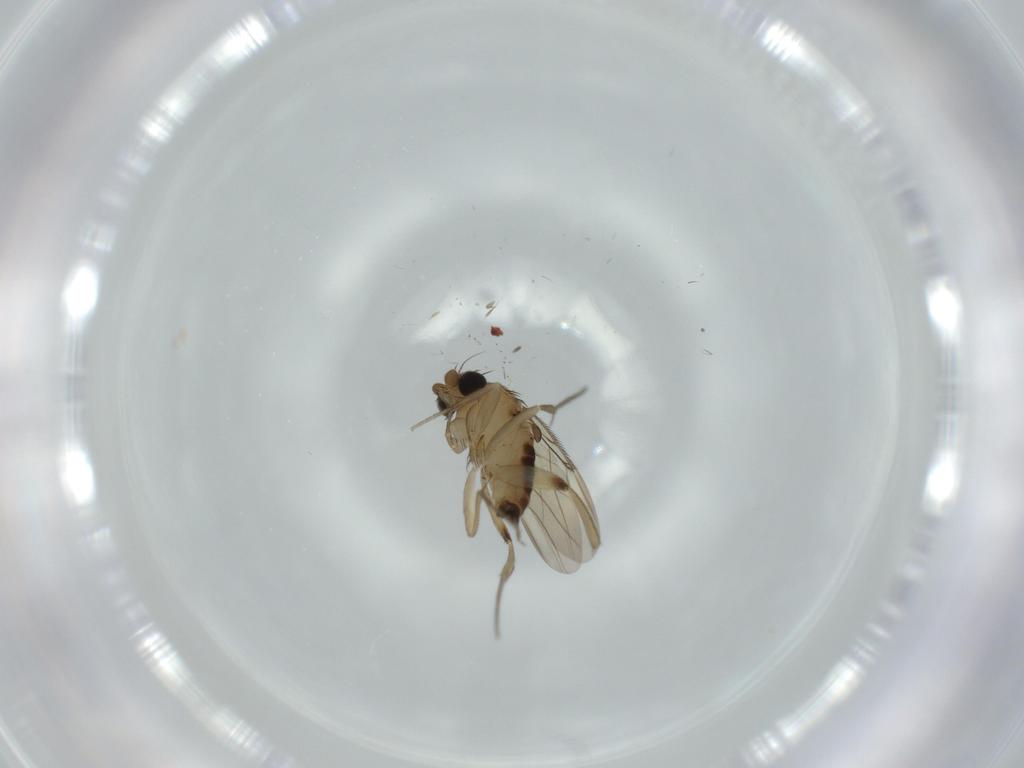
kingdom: Animalia
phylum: Arthropoda
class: Insecta
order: Diptera
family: Phoridae
